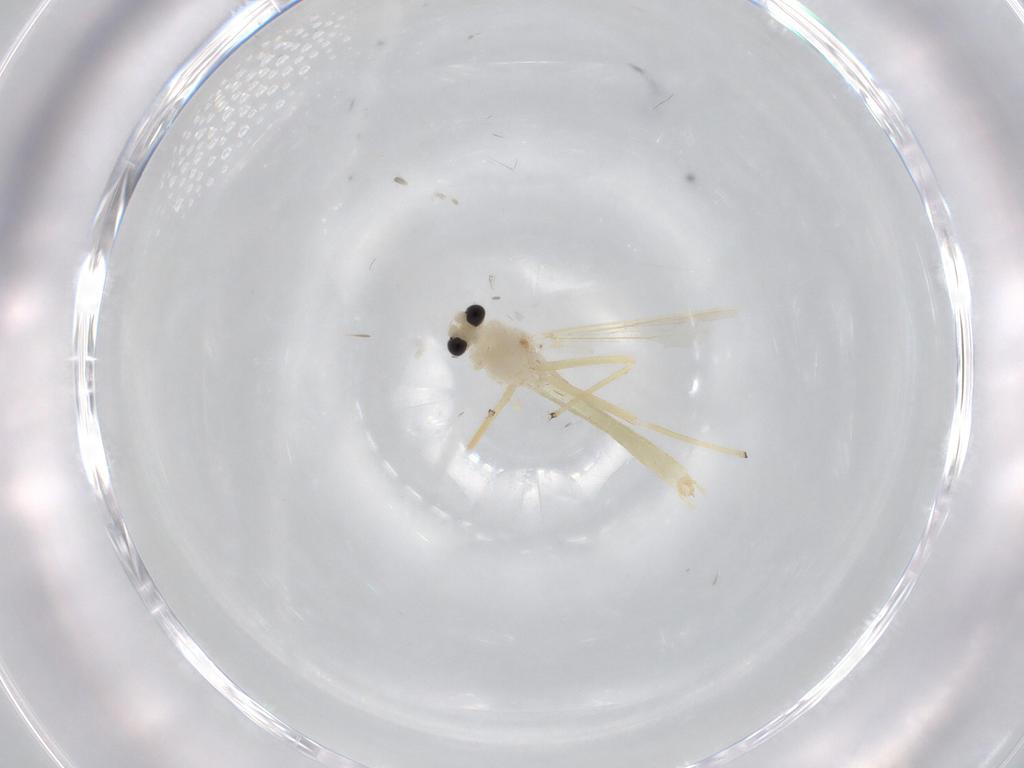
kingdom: Animalia
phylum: Arthropoda
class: Insecta
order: Diptera
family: Chironomidae
